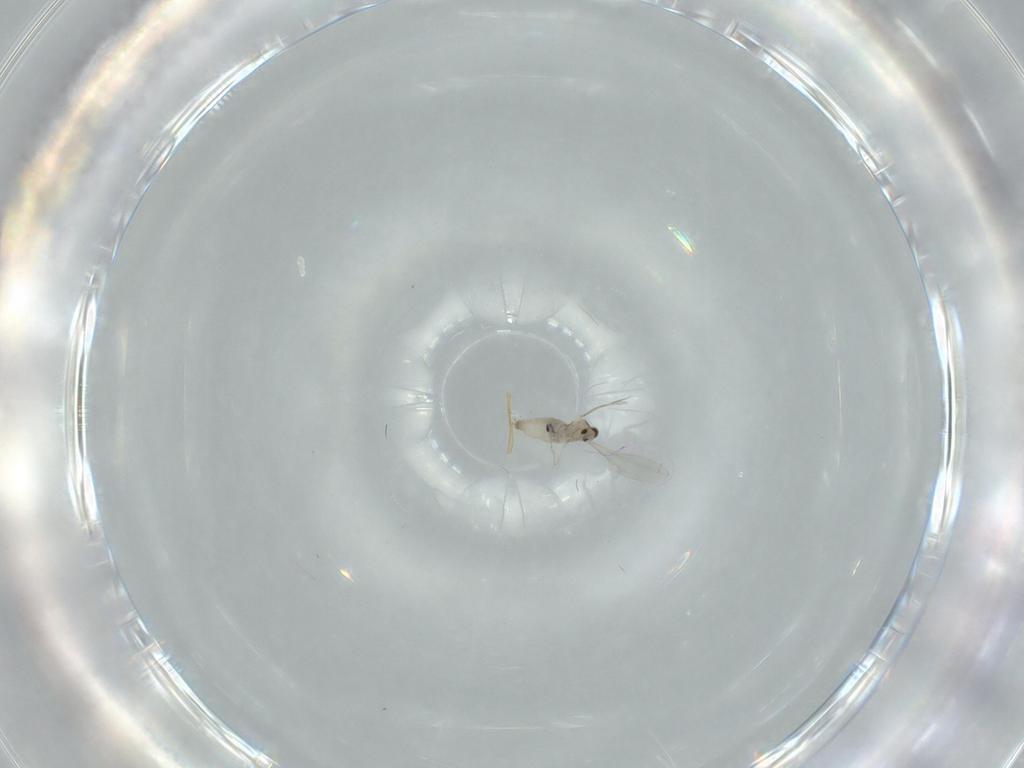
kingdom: Animalia
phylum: Arthropoda
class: Insecta
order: Diptera
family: Cecidomyiidae
